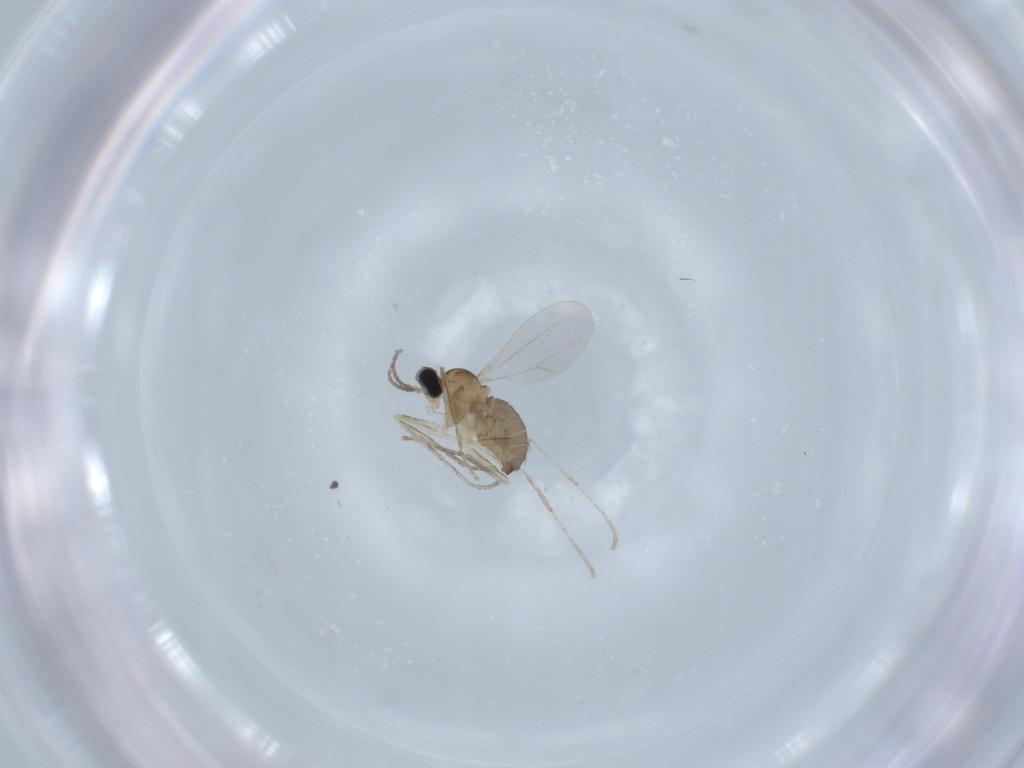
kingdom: Animalia
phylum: Arthropoda
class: Insecta
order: Diptera
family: Cecidomyiidae
